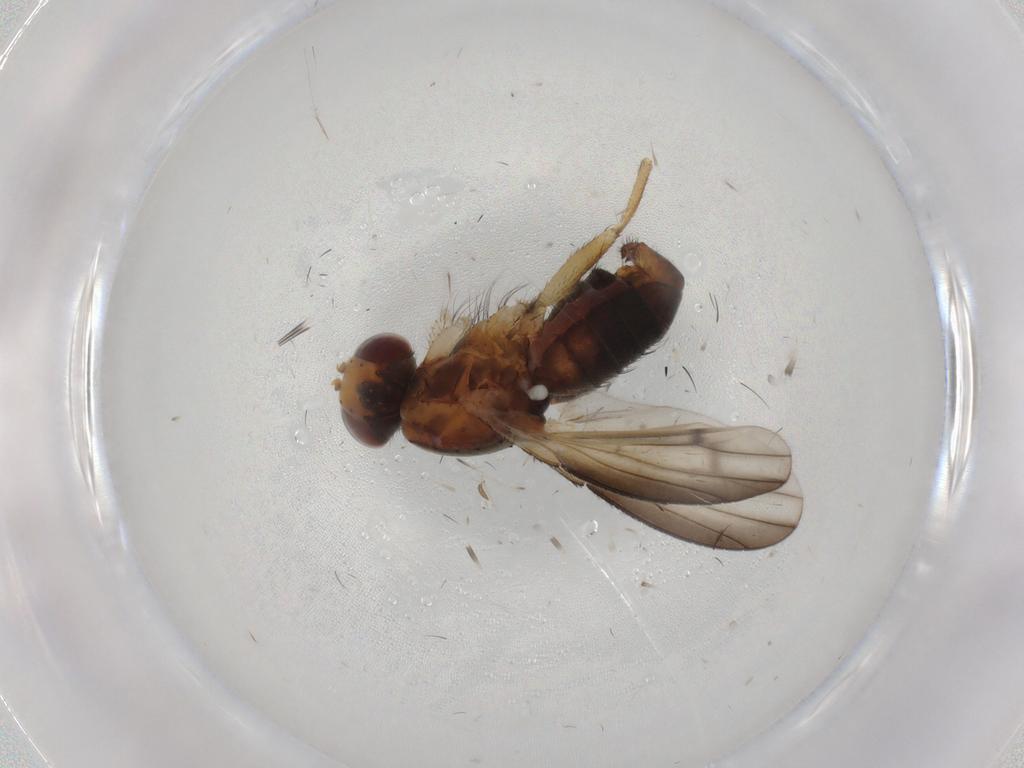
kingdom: Animalia
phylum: Arthropoda
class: Insecta
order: Diptera
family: Heleomyzidae
